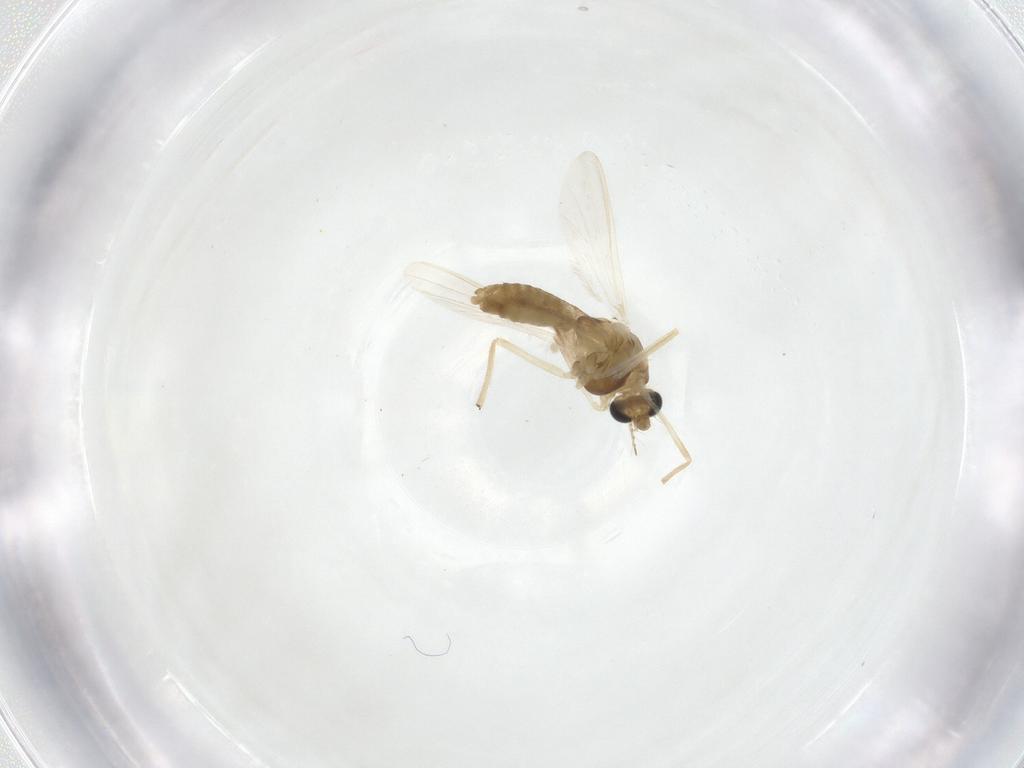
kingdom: Animalia
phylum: Arthropoda
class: Insecta
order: Diptera
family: Chironomidae
